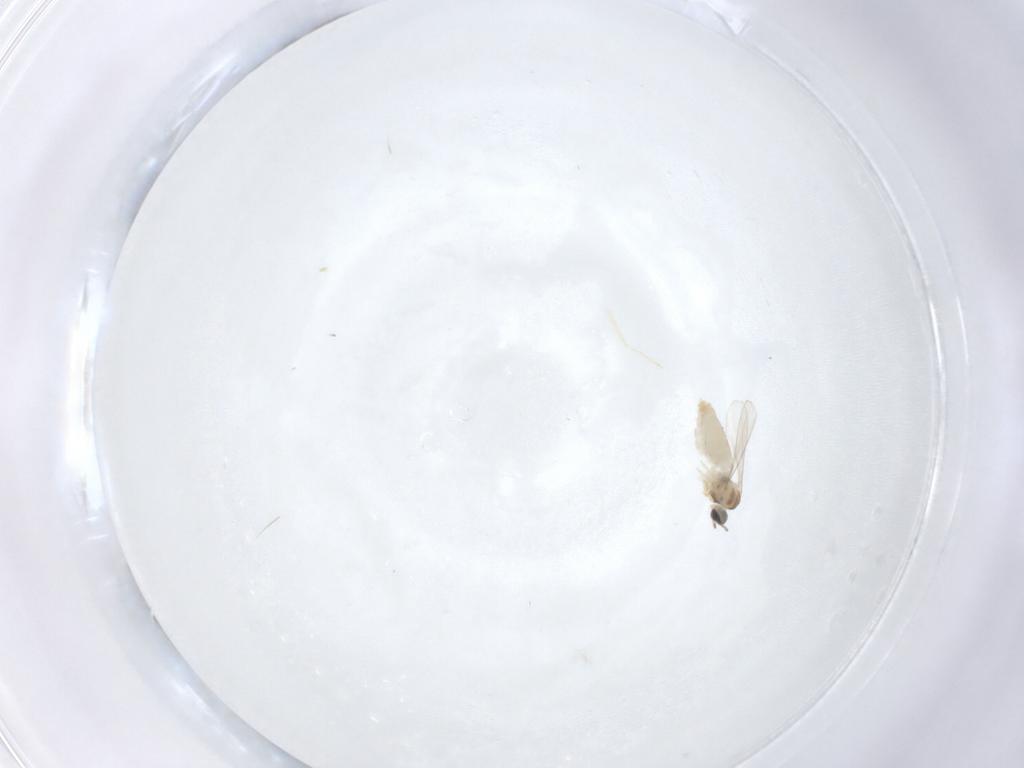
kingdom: Animalia
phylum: Arthropoda
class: Insecta
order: Diptera
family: Cecidomyiidae
